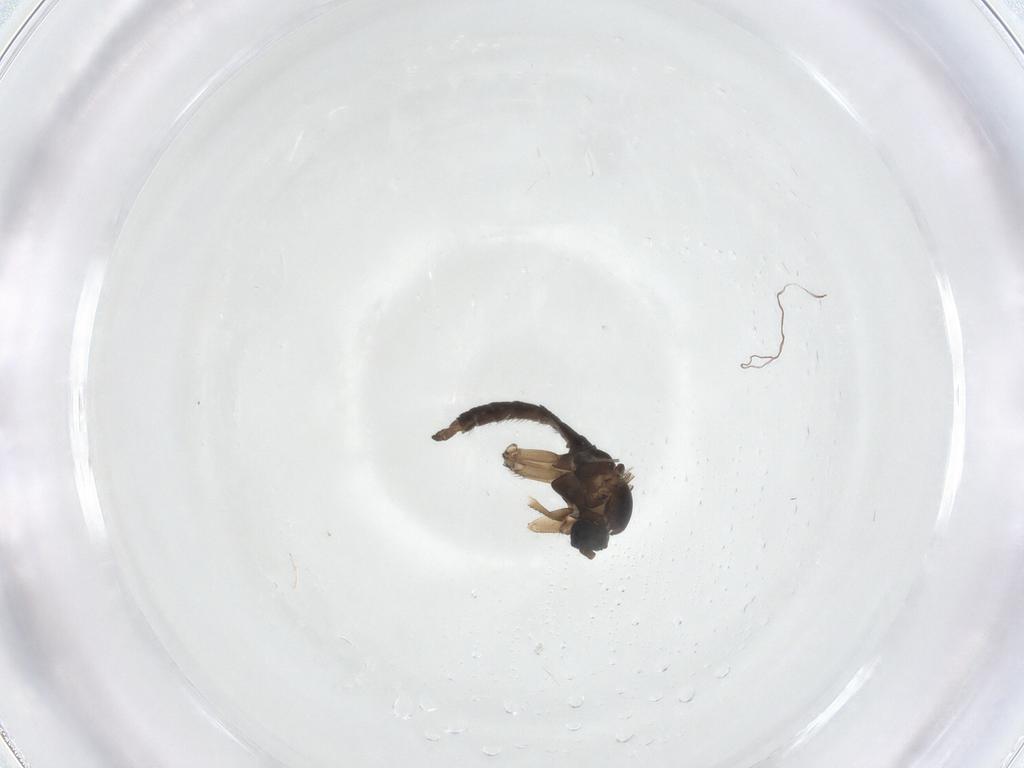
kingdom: Animalia
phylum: Arthropoda
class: Insecta
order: Diptera
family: Sciaridae
